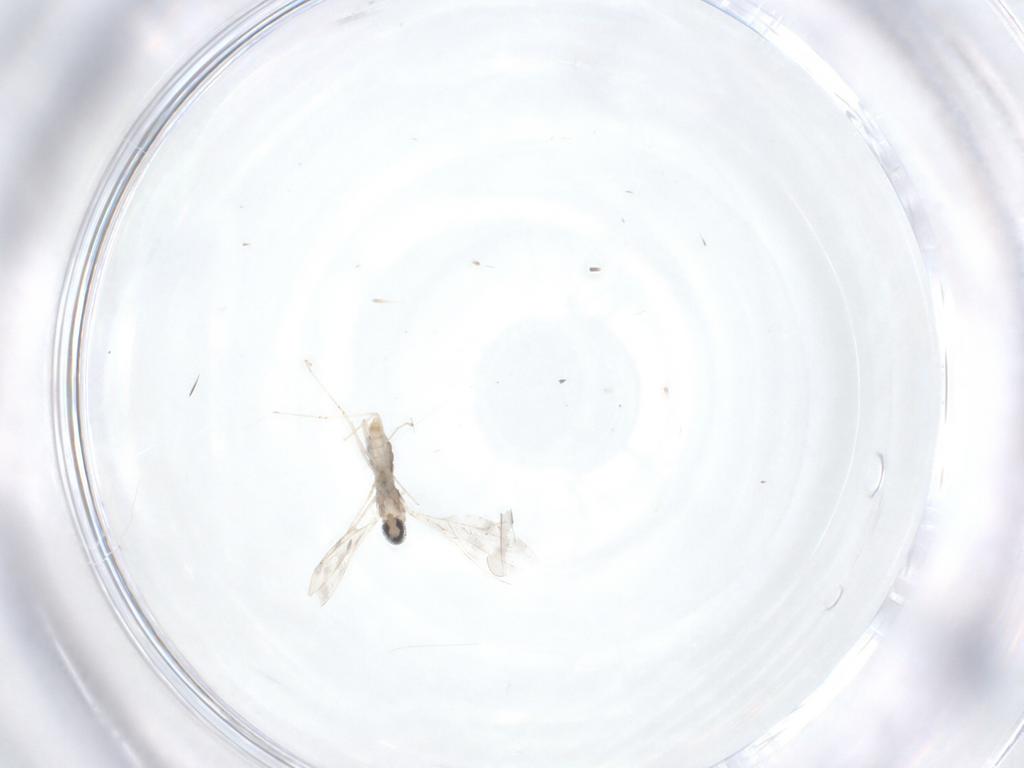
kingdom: Animalia
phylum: Arthropoda
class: Insecta
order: Diptera
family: Cecidomyiidae
